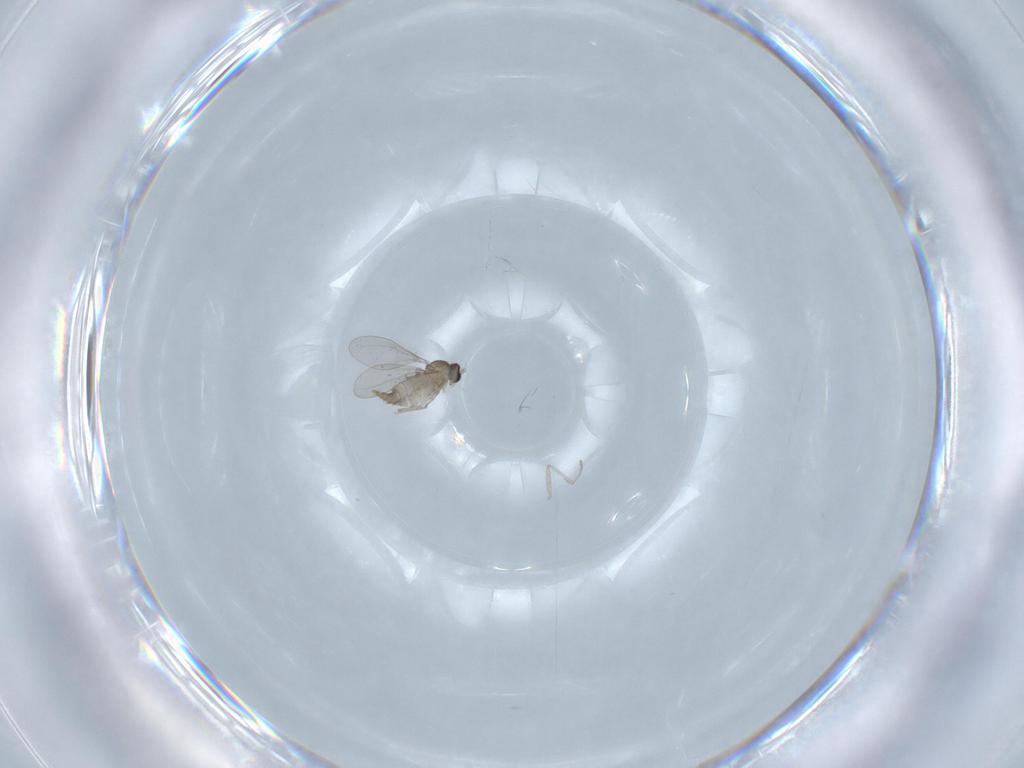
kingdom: Animalia
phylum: Arthropoda
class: Insecta
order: Diptera
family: Cecidomyiidae
